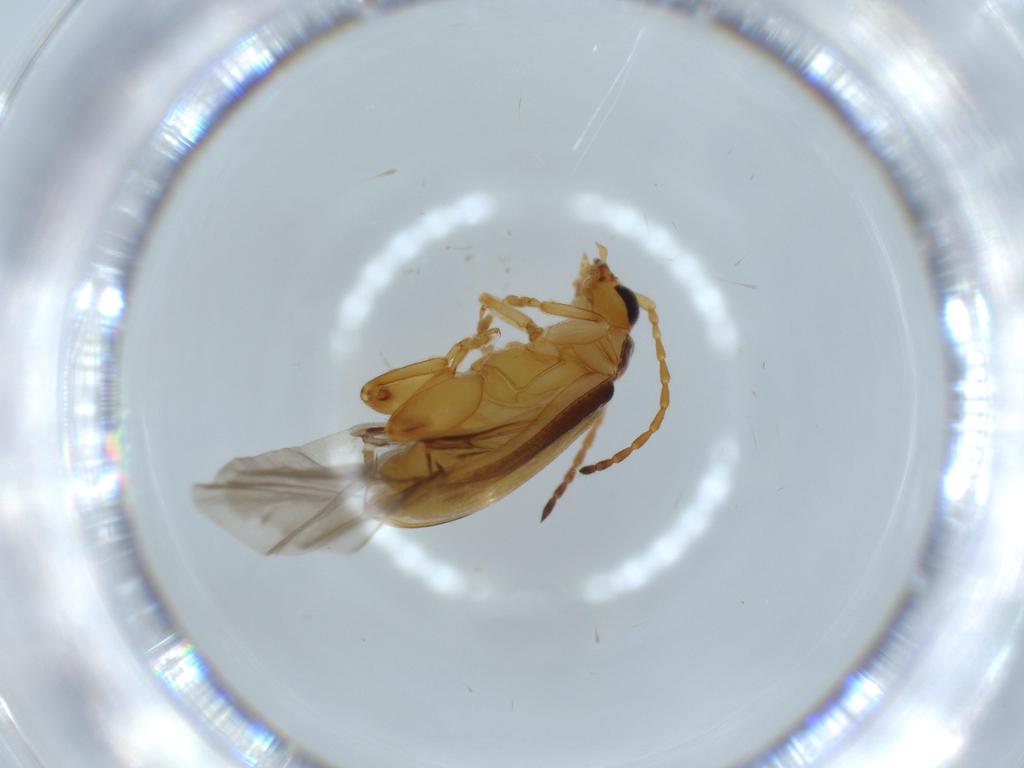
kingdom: Animalia
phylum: Arthropoda
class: Insecta
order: Coleoptera
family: Chrysomelidae
